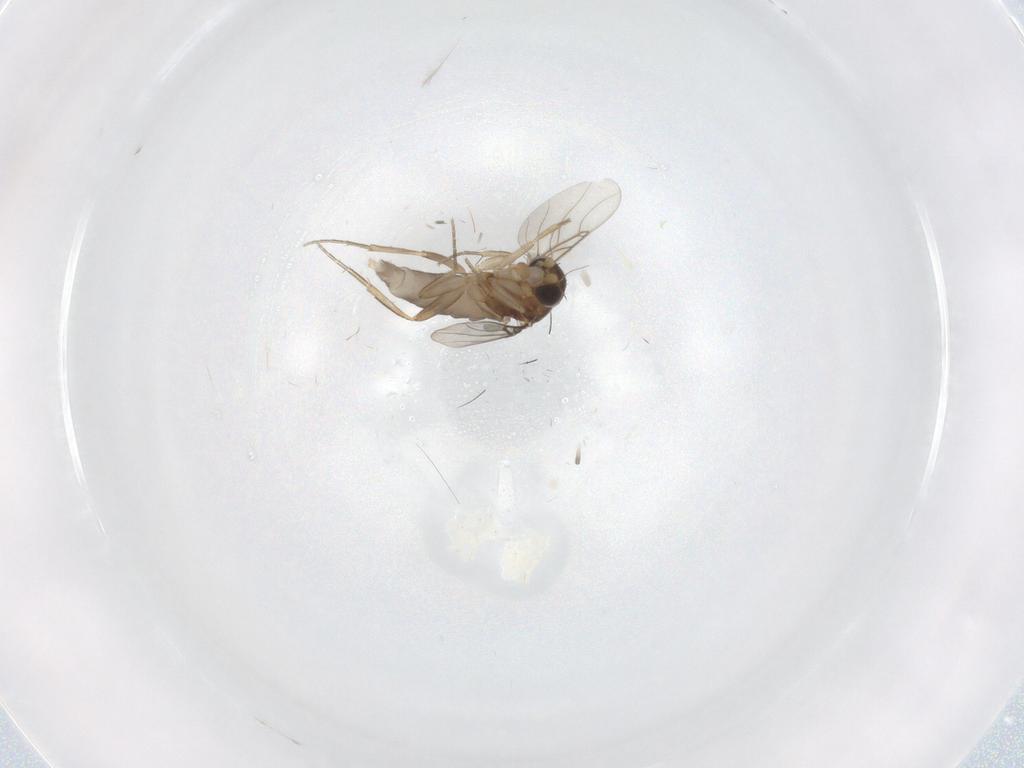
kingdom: Animalia
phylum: Arthropoda
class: Insecta
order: Diptera
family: Phoridae
